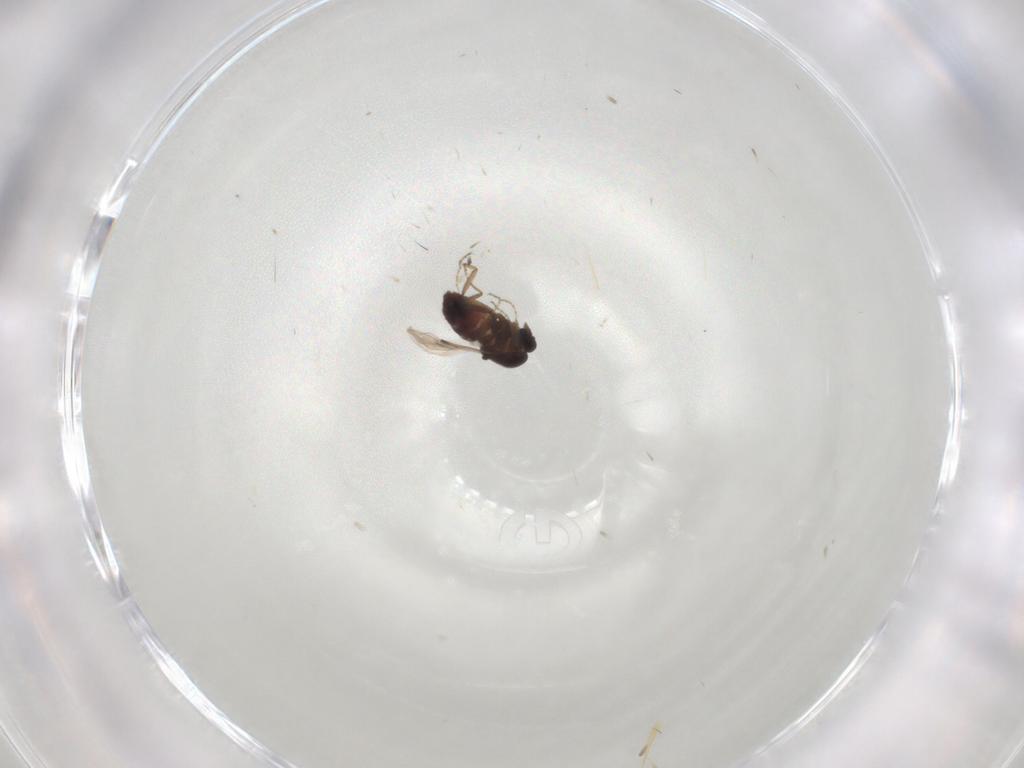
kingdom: Animalia
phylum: Arthropoda
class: Insecta
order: Diptera
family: Ceratopogonidae
